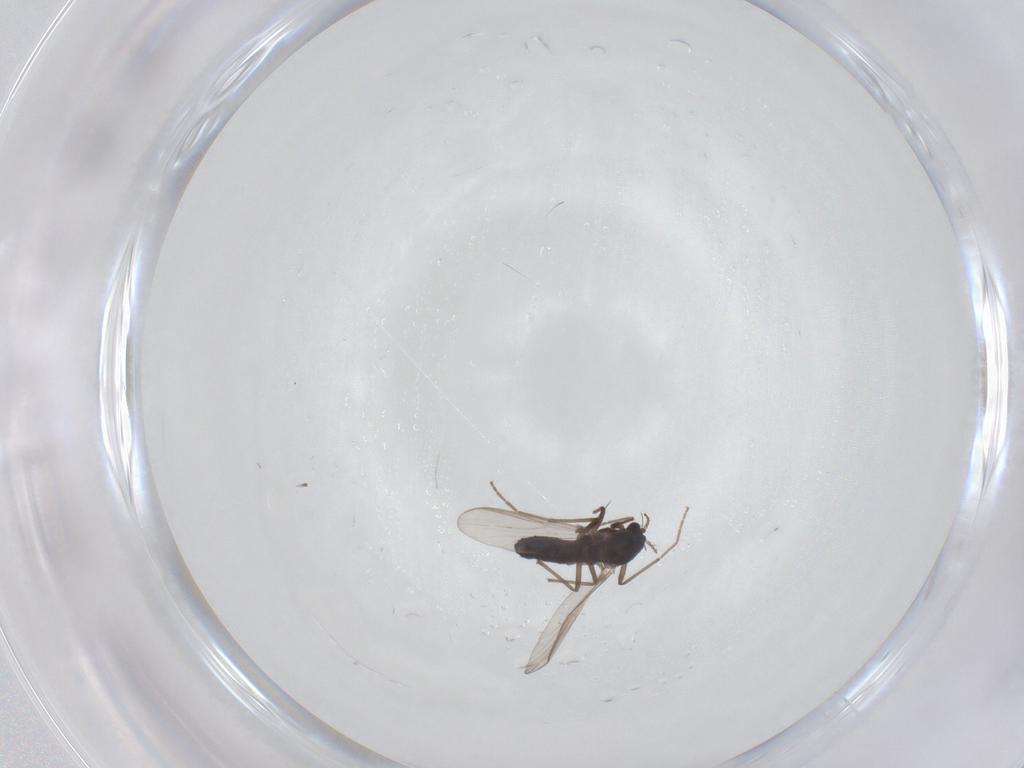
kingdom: Animalia
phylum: Arthropoda
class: Insecta
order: Diptera
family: Chironomidae
